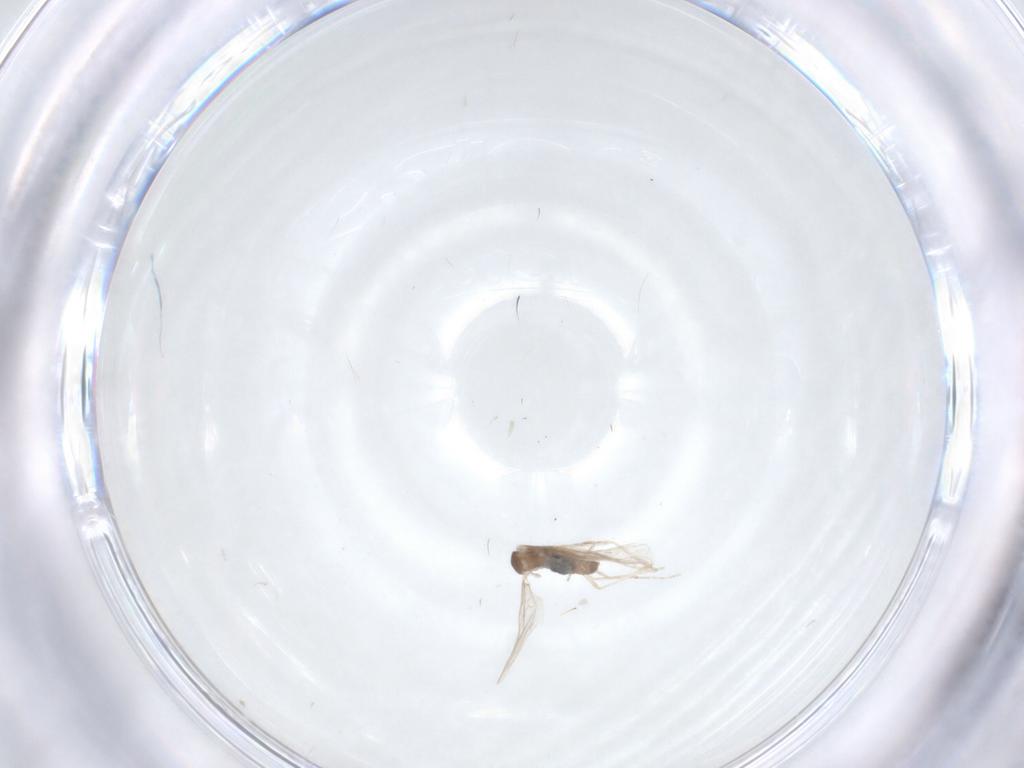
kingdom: Animalia
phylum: Arthropoda
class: Insecta
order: Diptera
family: Cecidomyiidae
